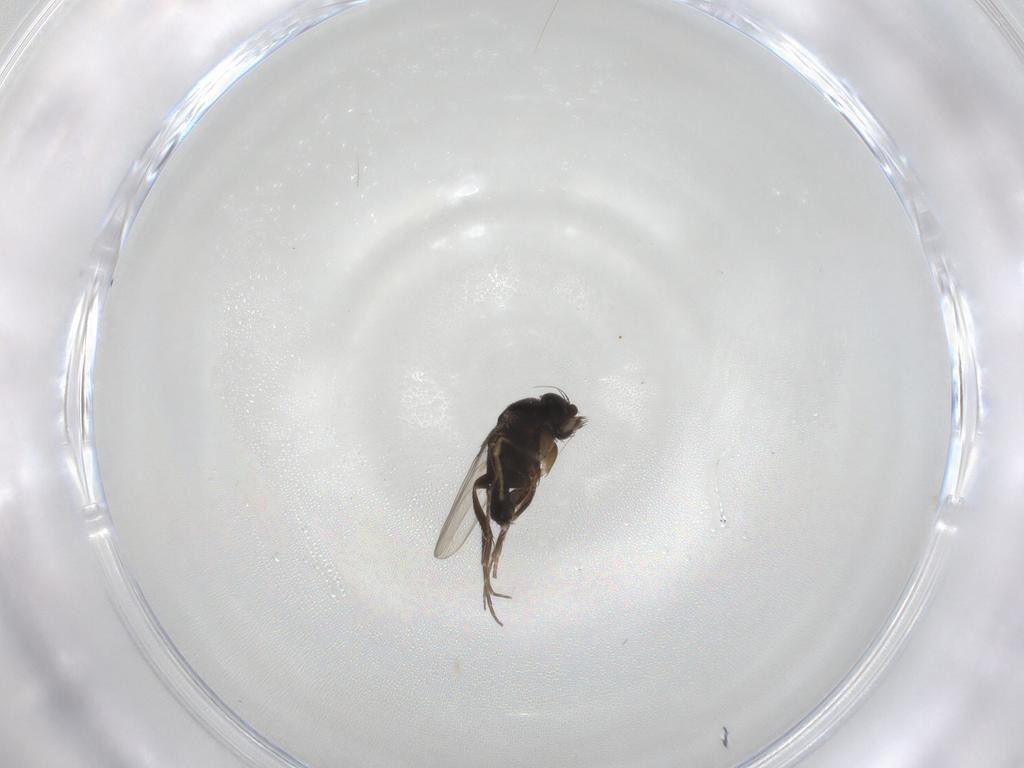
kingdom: Animalia
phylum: Arthropoda
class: Insecta
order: Diptera
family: Phoridae
